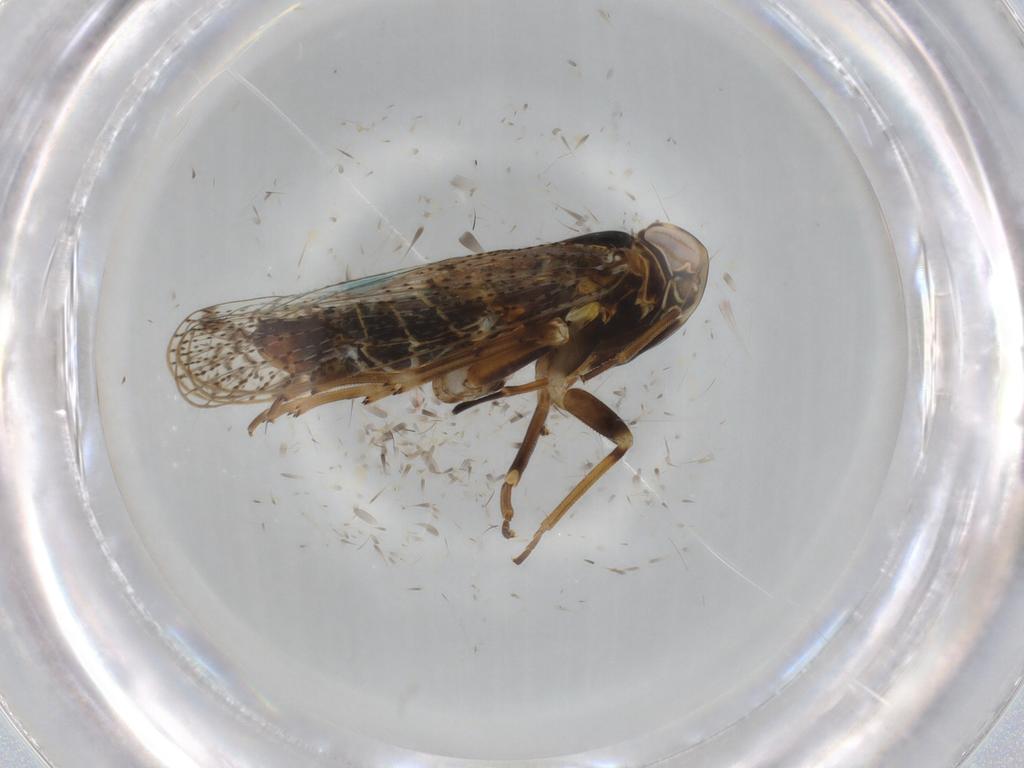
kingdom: Animalia
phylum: Arthropoda
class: Insecta
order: Hemiptera
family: Cixiidae
